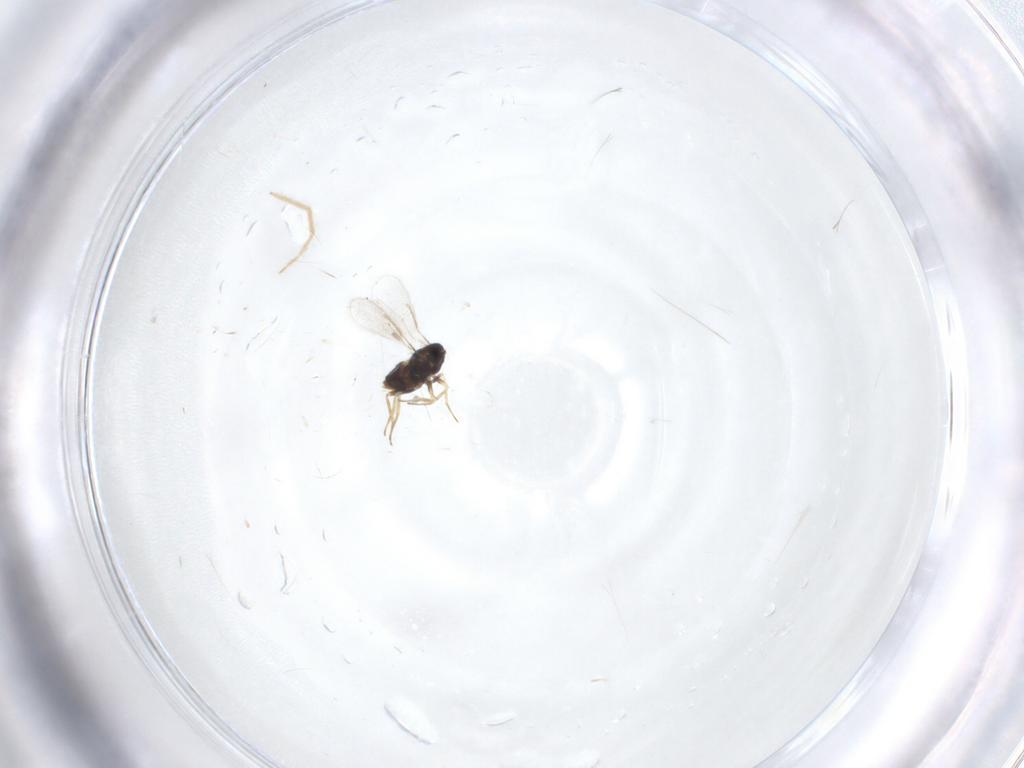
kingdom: Animalia
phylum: Arthropoda
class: Insecta
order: Hymenoptera
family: Aphelinidae
